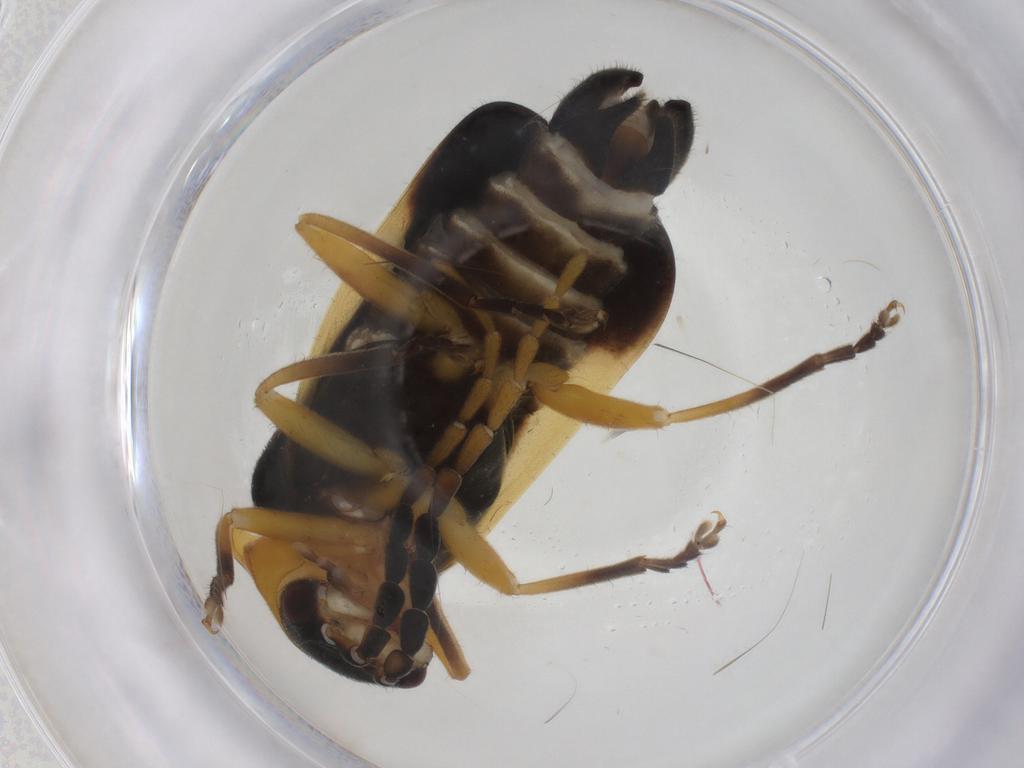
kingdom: Animalia
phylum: Arthropoda
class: Insecta
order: Coleoptera
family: Cantharidae
